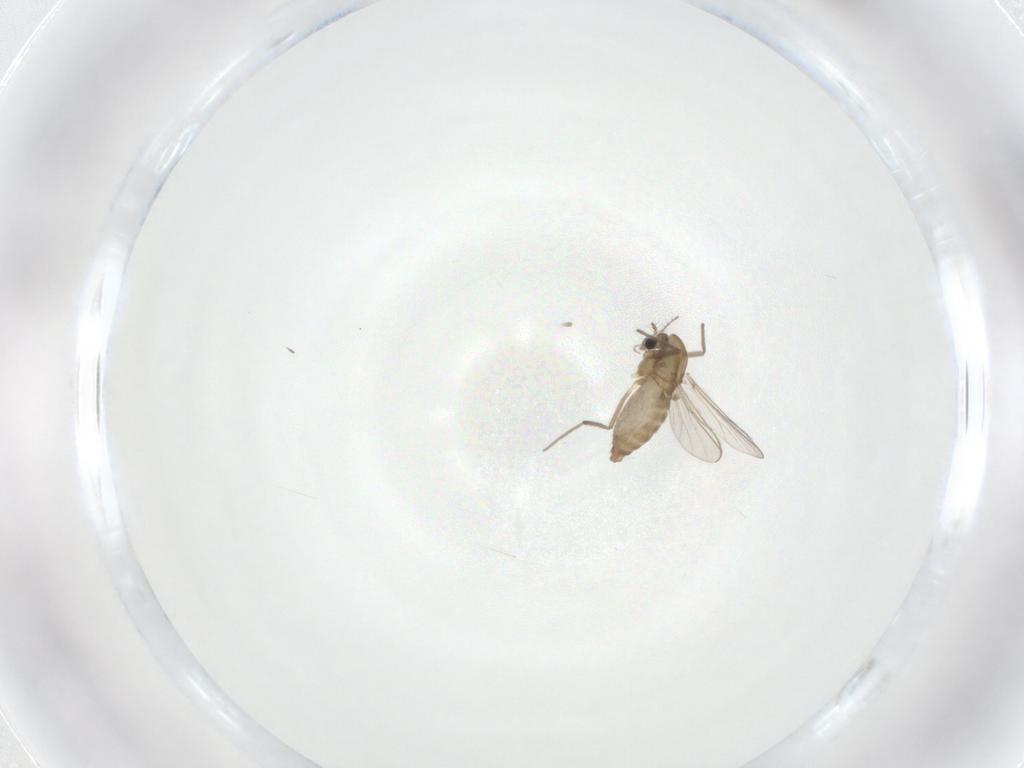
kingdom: Animalia
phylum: Arthropoda
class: Insecta
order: Diptera
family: Chironomidae
